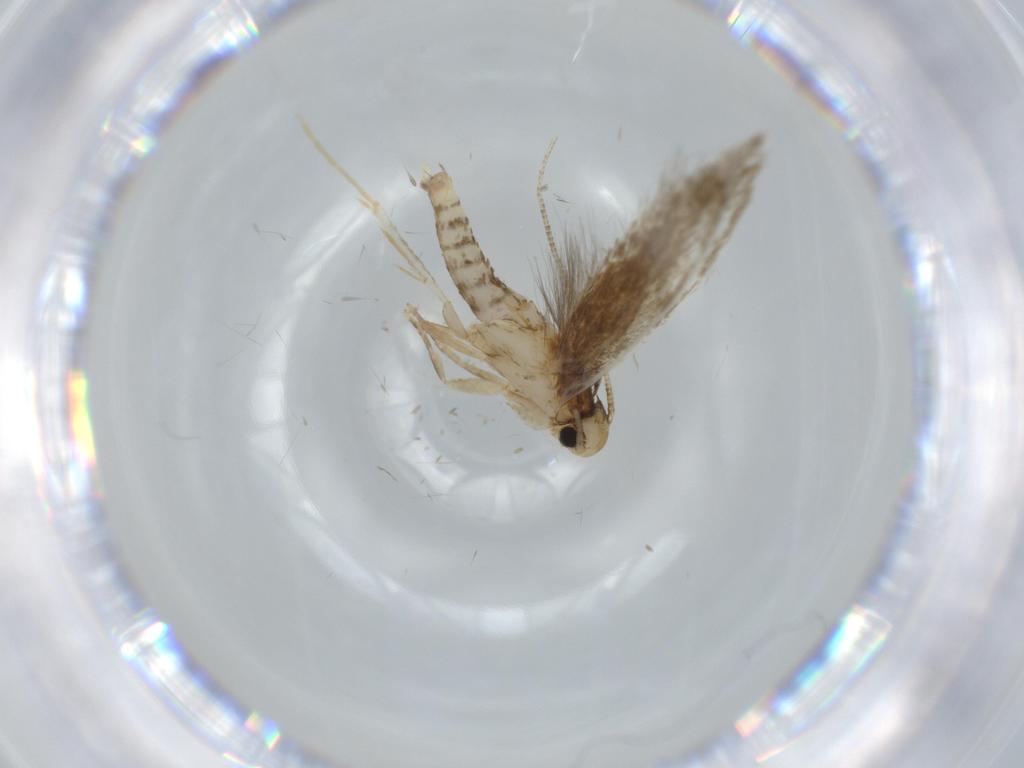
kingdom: Animalia
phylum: Arthropoda
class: Insecta
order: Lepidoptera
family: Tineidae
